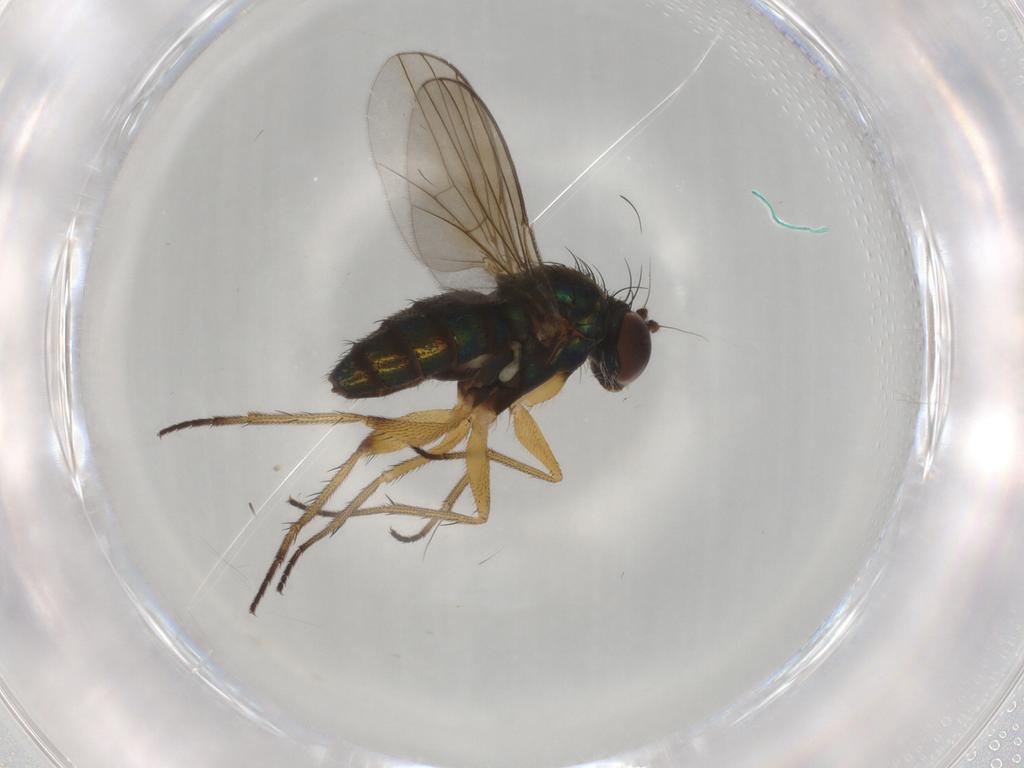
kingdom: Animalia
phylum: Arthropoda
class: Insecta
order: Diptera
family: Dolichopodidae
